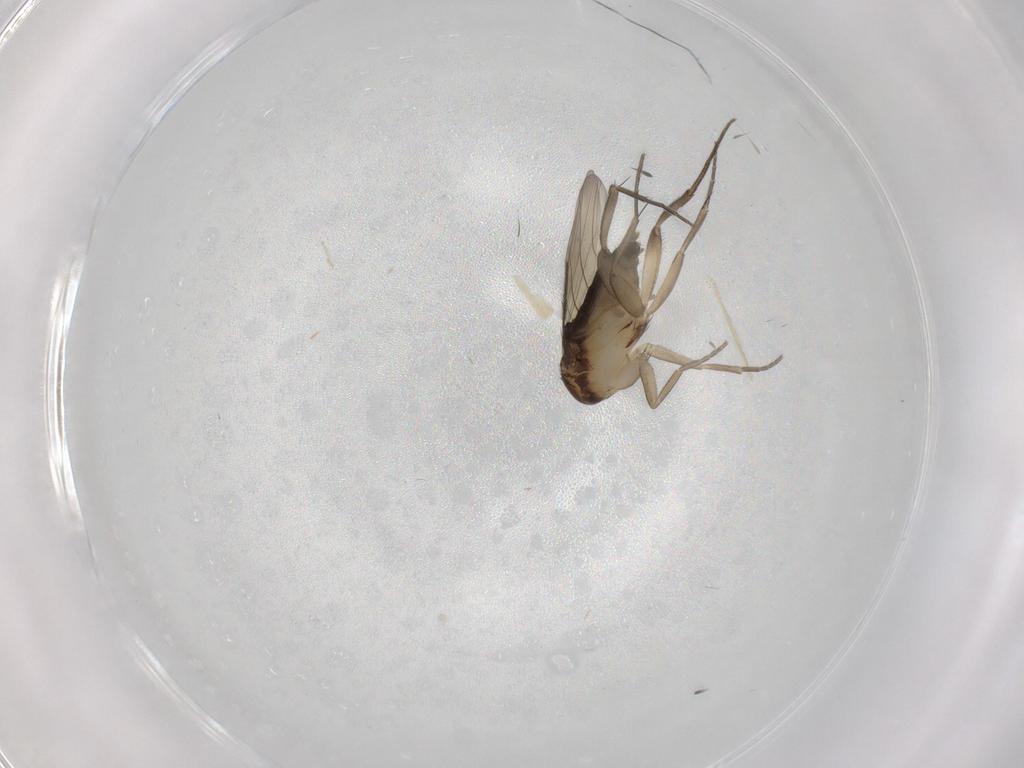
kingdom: Animalia
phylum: Arthropoda
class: Insecta
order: Diptera
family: Phoridae
